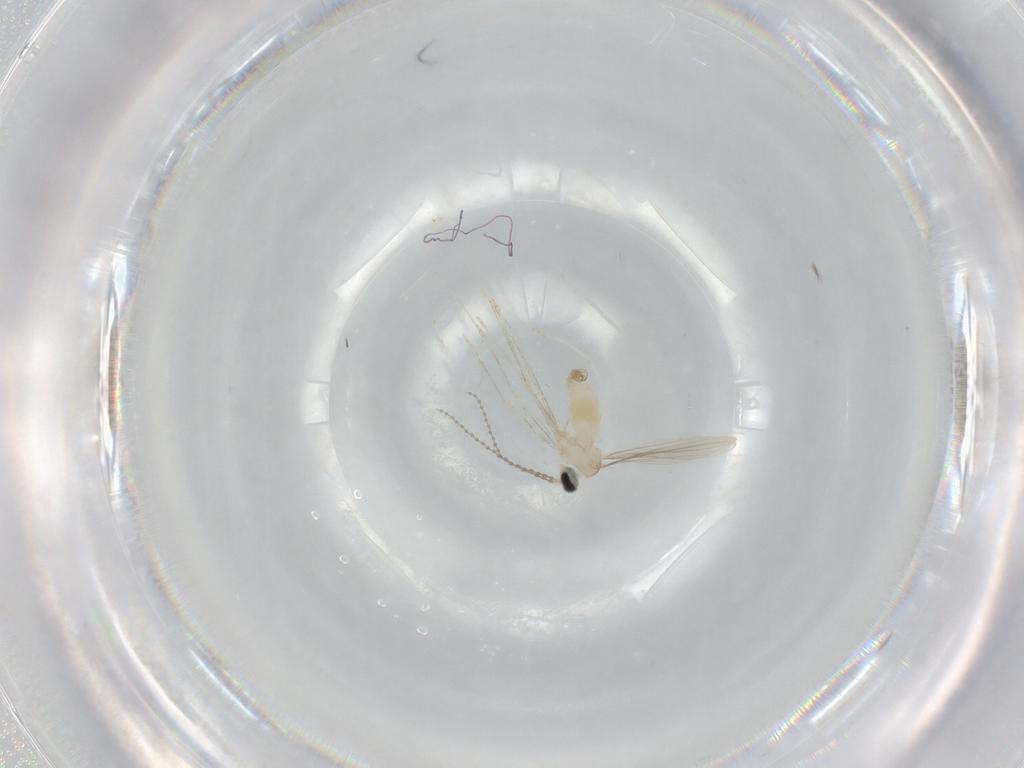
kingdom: Animalia
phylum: Arthropoda
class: Insecta
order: Diptera
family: Cecidomyiidae
